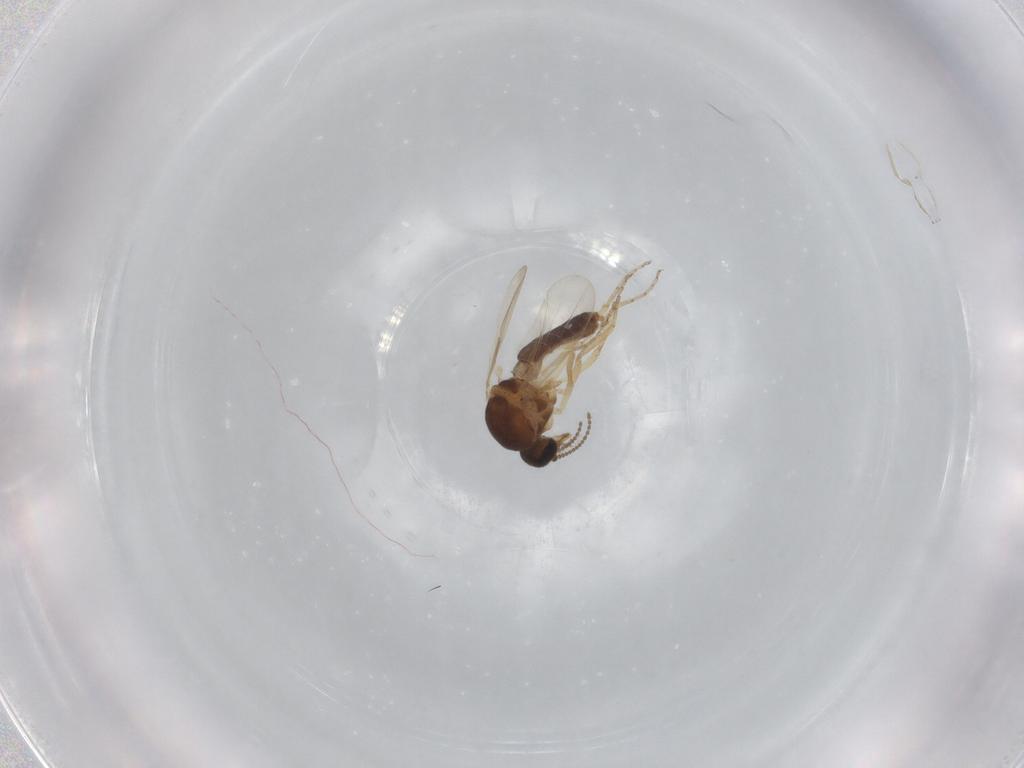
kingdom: Animalia
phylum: Arthropoda
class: Insecta
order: Diptera
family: Ceratopogonidae
